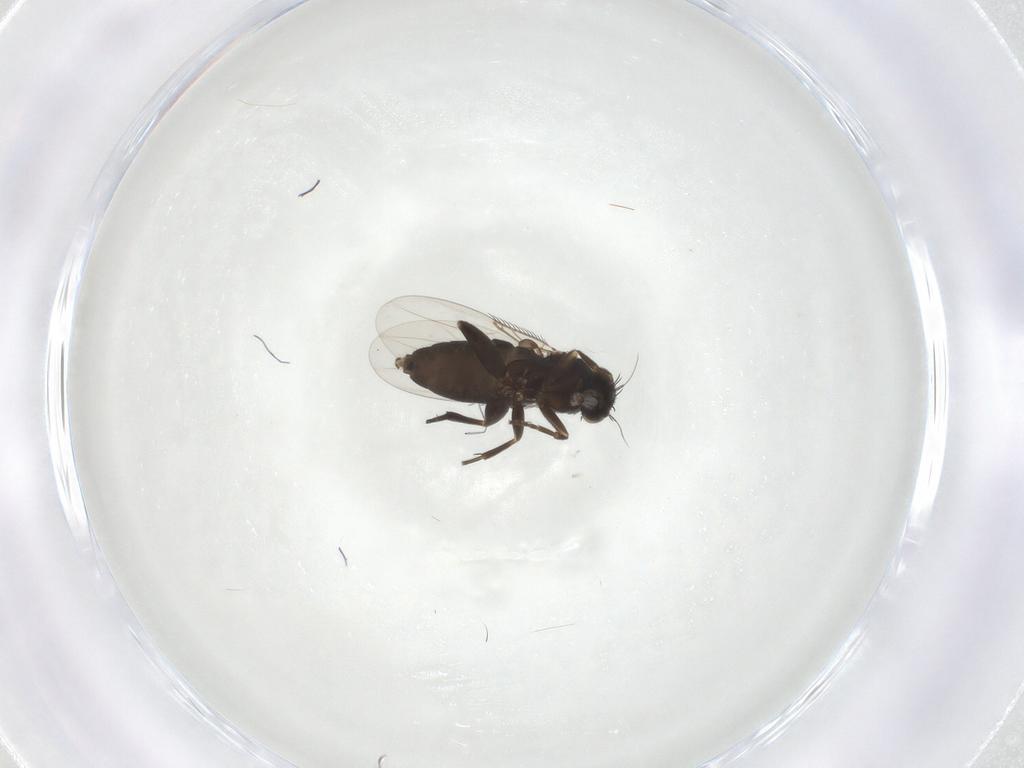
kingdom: Animalia
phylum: Arthropoda
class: Insecta
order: Diptera
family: Phoridae
